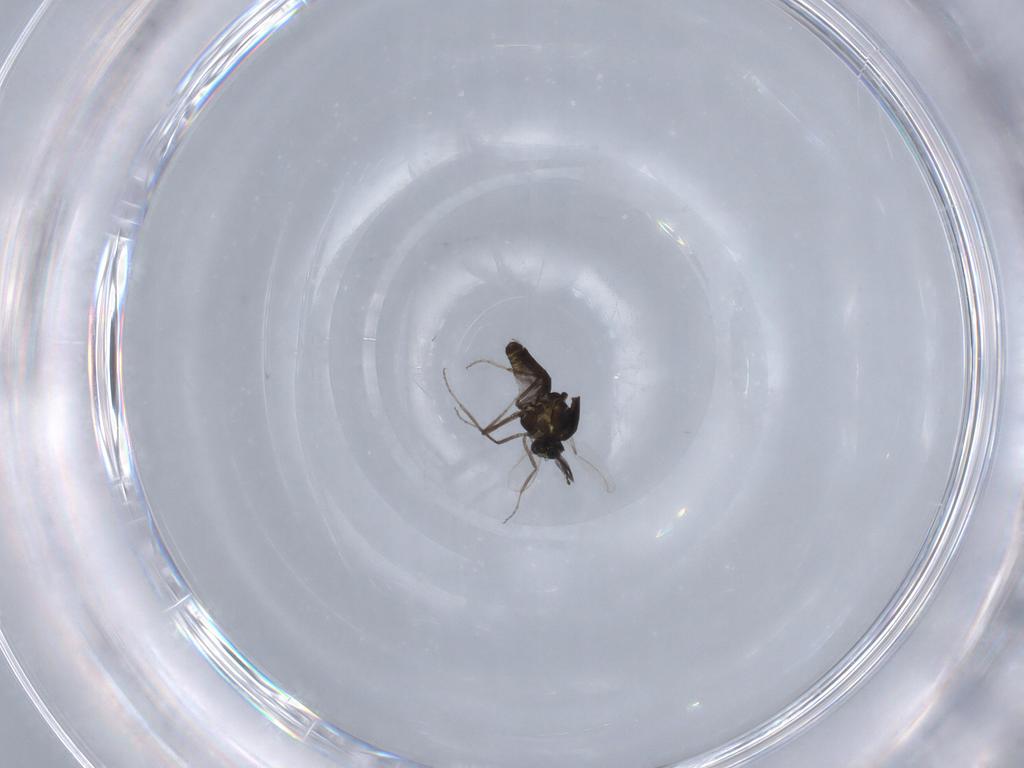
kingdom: Animalia
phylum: Arthropoda
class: Insecta
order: Diptera
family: Ceratopogonidae
